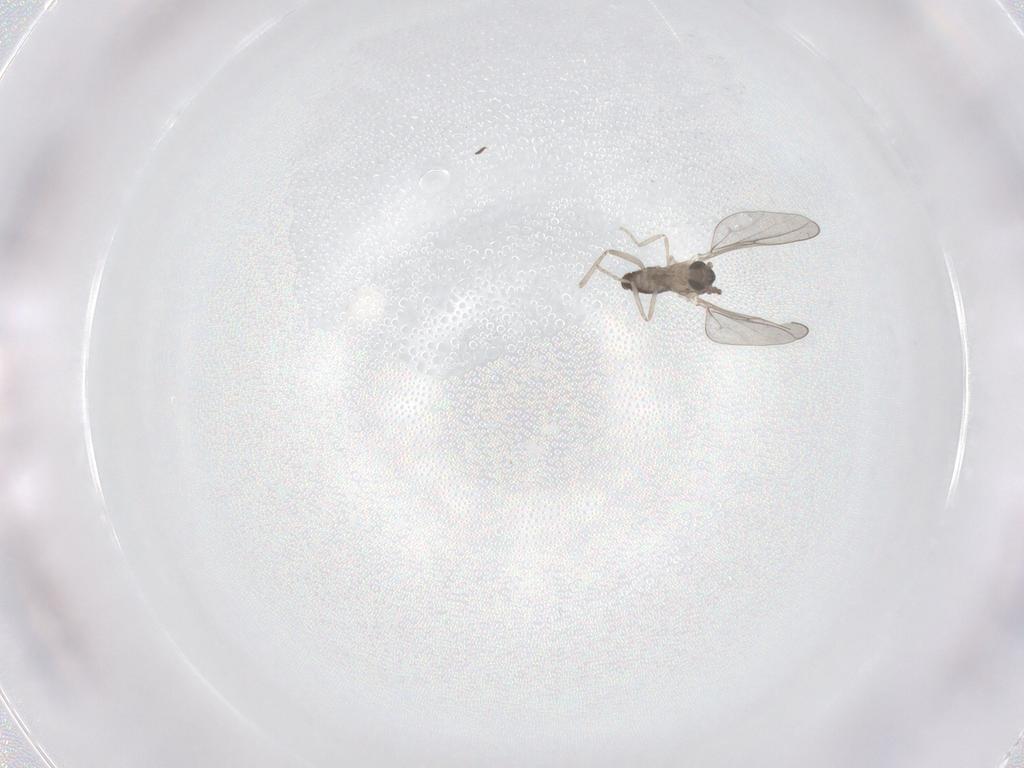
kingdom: Animalia
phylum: Arthropoda
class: Insecta
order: Diptera
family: Cecidomyiidae
